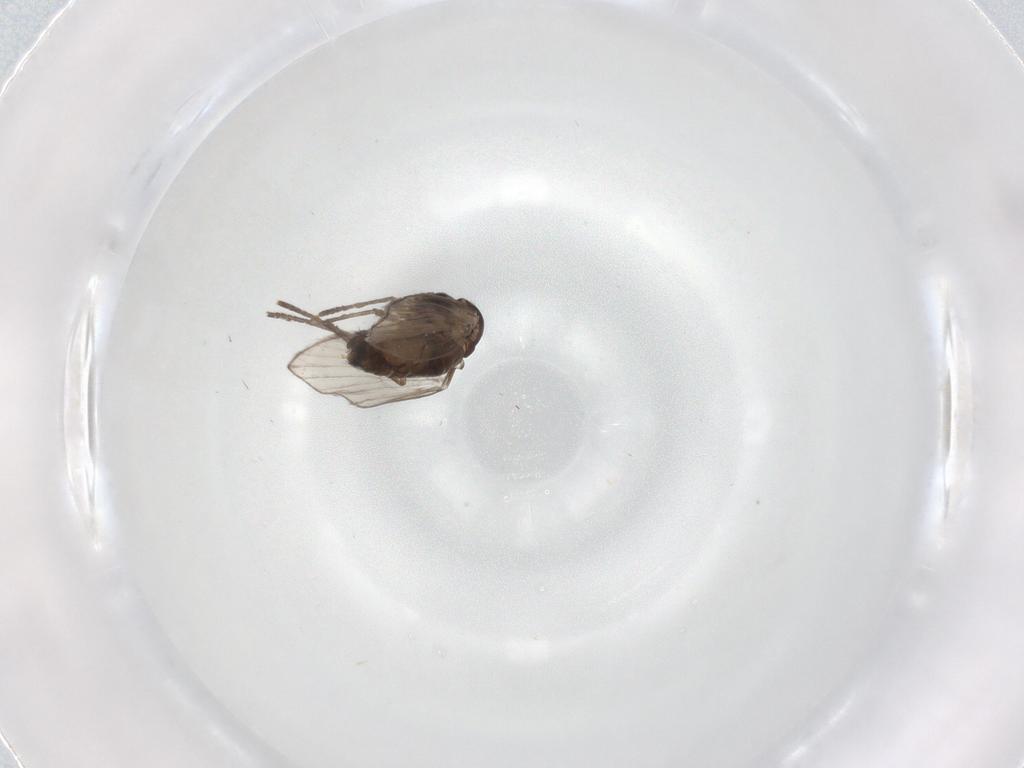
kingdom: Animalia
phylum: Arthropoda
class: Insecta
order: Diptera
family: Psychodidae
